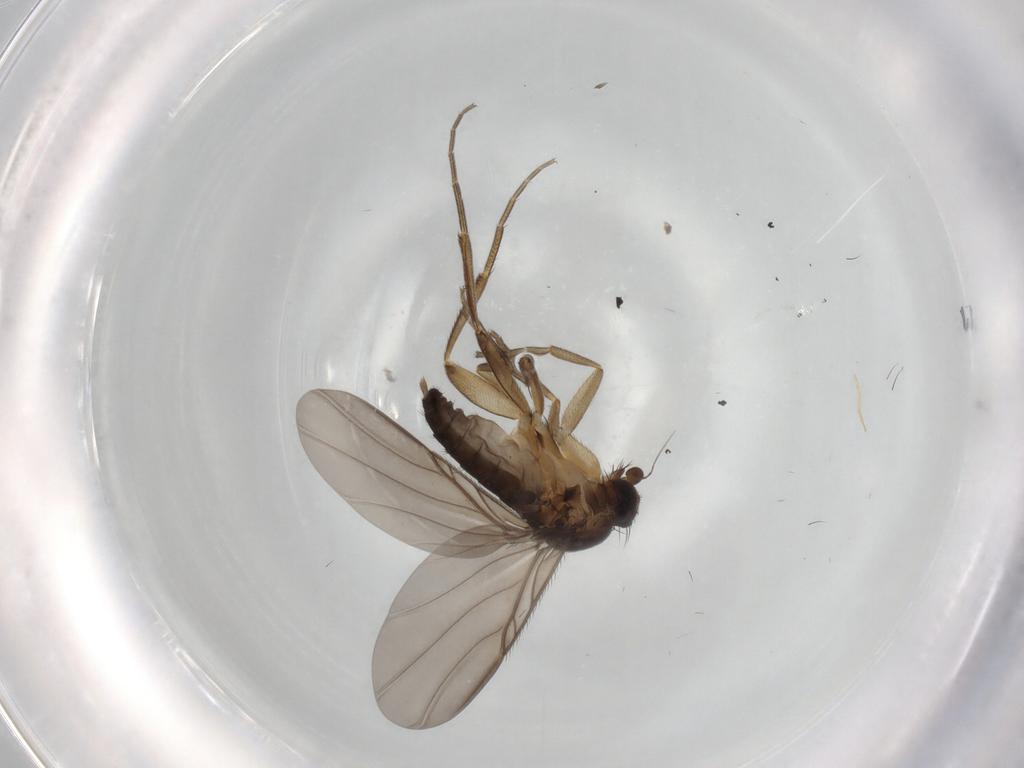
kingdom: Animalia
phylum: Arthropoda
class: Insecta
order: Diptera
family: Phoridae
